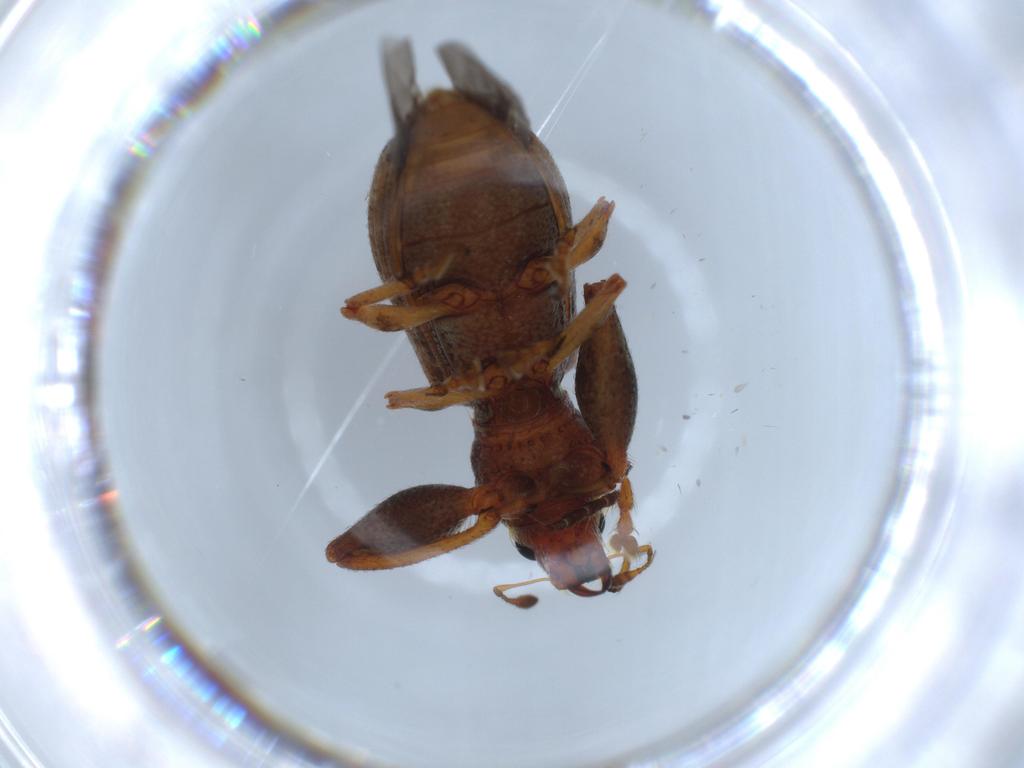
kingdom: Animalia
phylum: Arthropoda
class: Insecta
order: Coleoptera
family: Curculionidae
